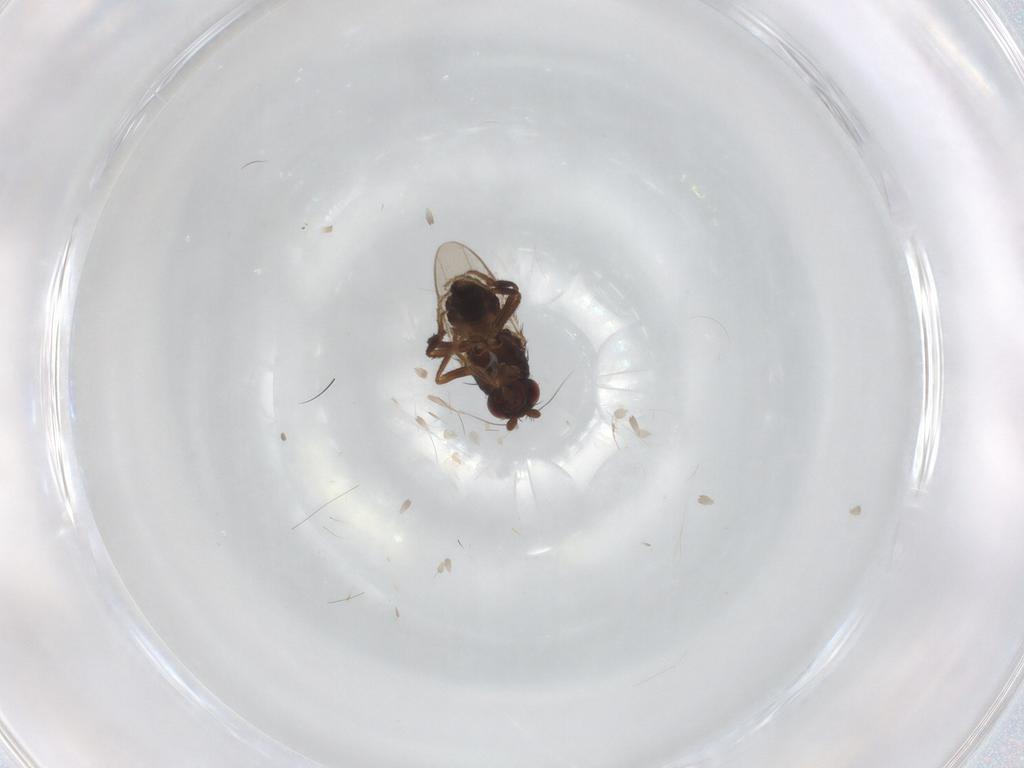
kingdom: Animalia
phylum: Arthropoda
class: Insecta
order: Diptera
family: Sphaeroceridae
